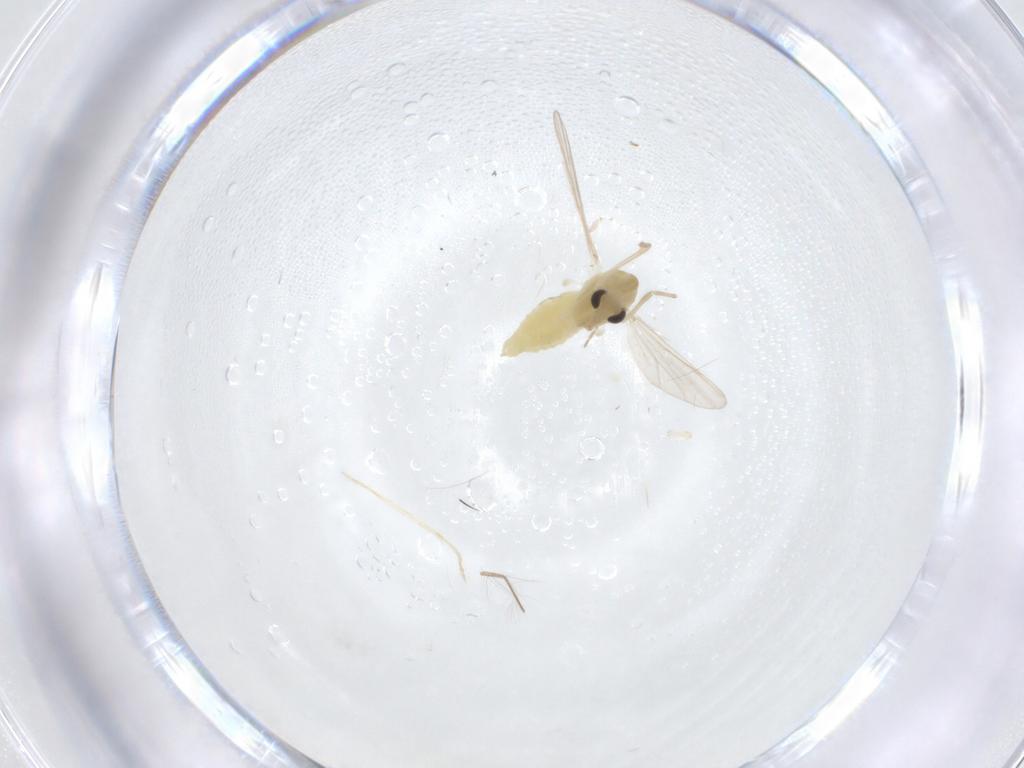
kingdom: Animalia
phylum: Arthropoda
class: Insecta
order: Diptera
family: Chironomidae
